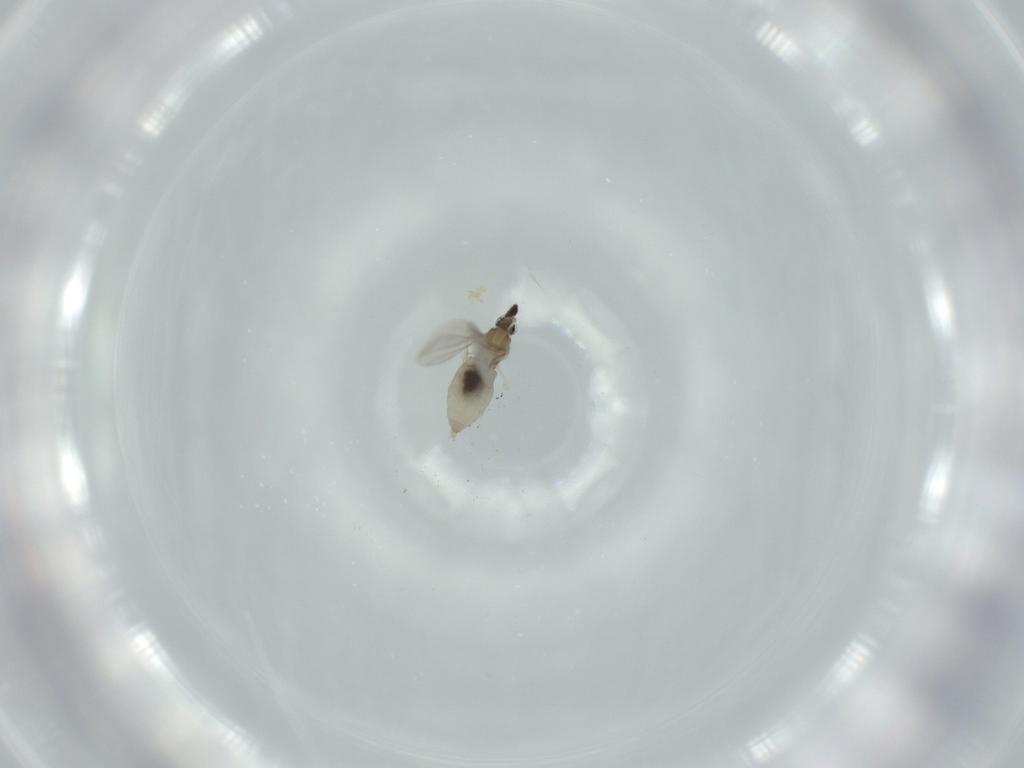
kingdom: Animalia
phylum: Arthropoda
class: Insecta
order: Diptera
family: Cecidomyiidae
